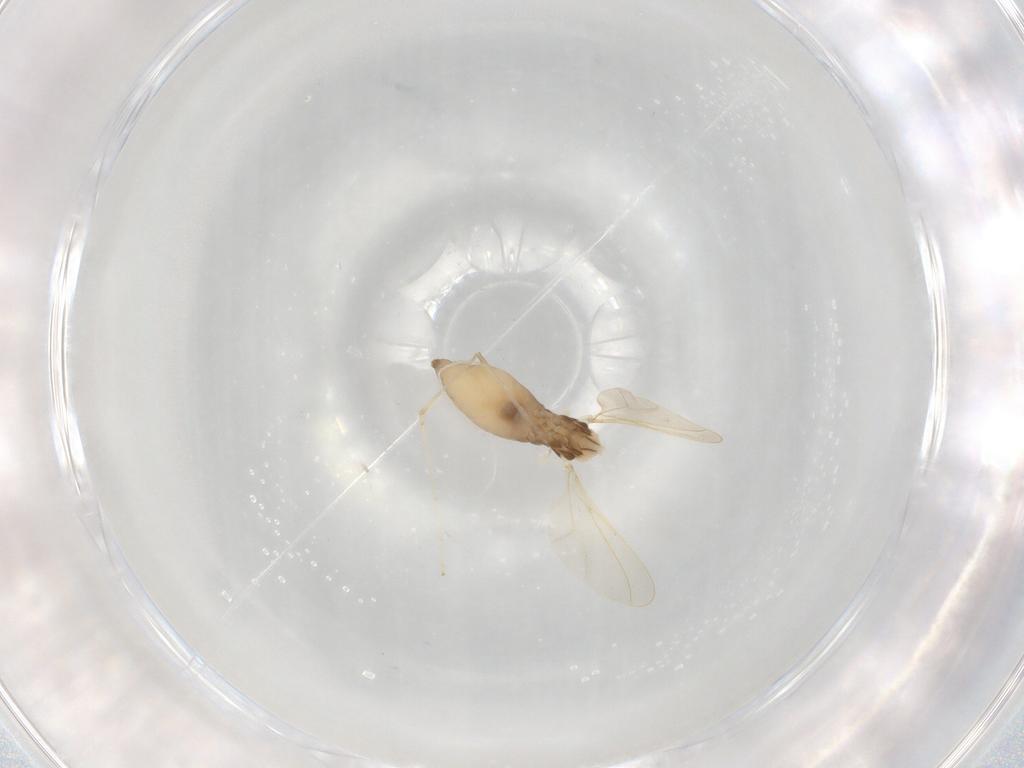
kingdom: Animalia
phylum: Arthropoda
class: Insecta
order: Diptera
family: Cecidomyiidae
